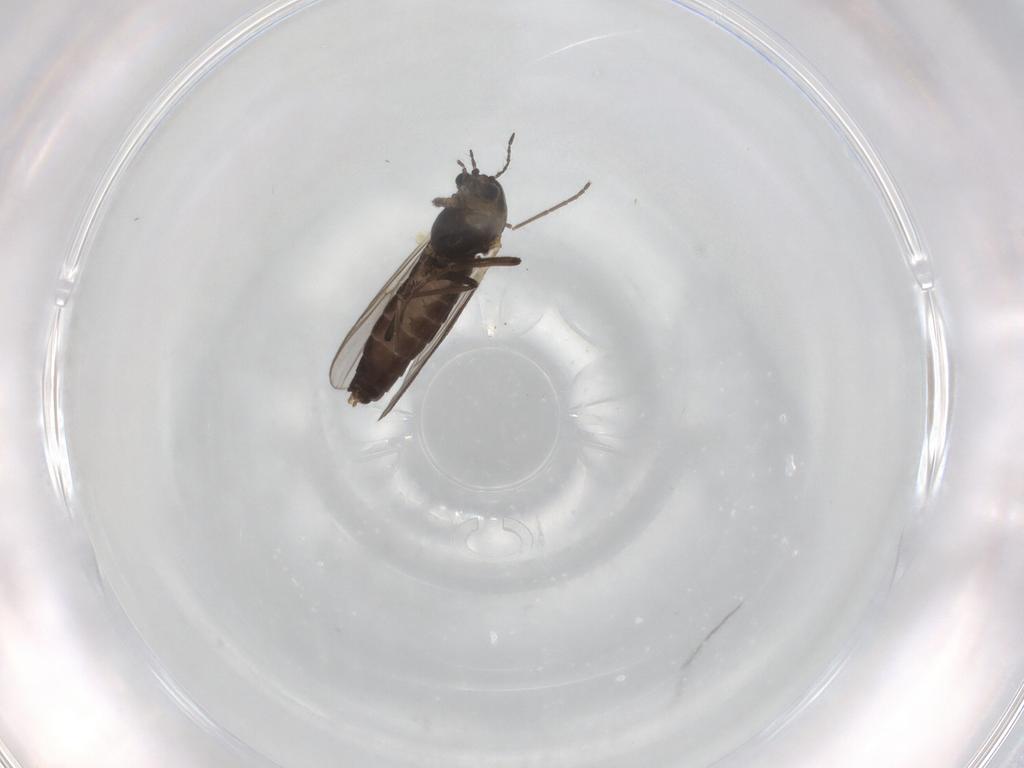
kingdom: Animalia
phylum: Arthropoda
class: Insecta
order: Diptera
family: Chironomidae
